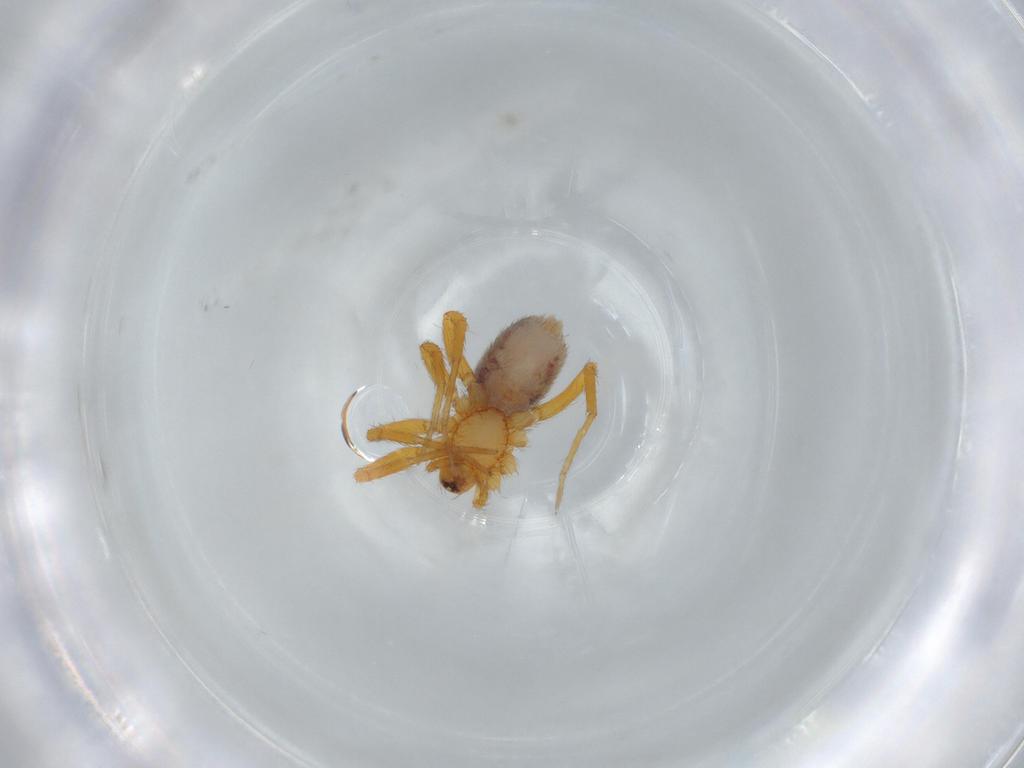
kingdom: Animalia
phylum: Arthropoda
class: Arachnida
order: Araneae
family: Oonopidae
